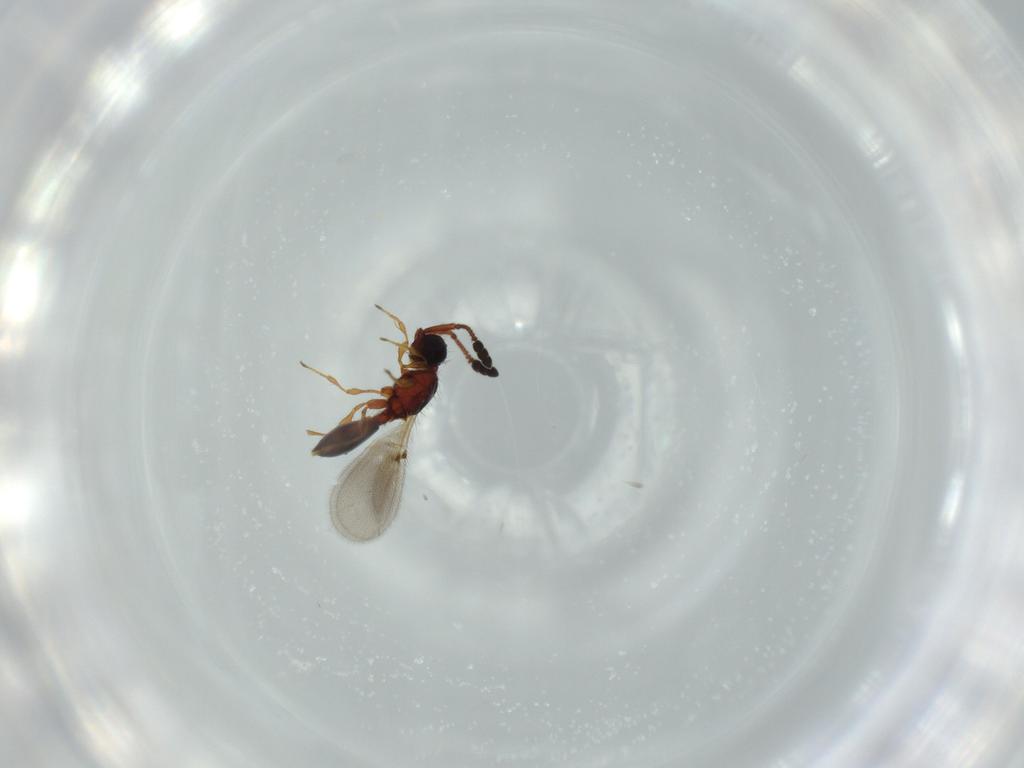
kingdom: Animalia
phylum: Arthropoda
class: Insecta
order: Hymenoptera
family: Diapriidae
